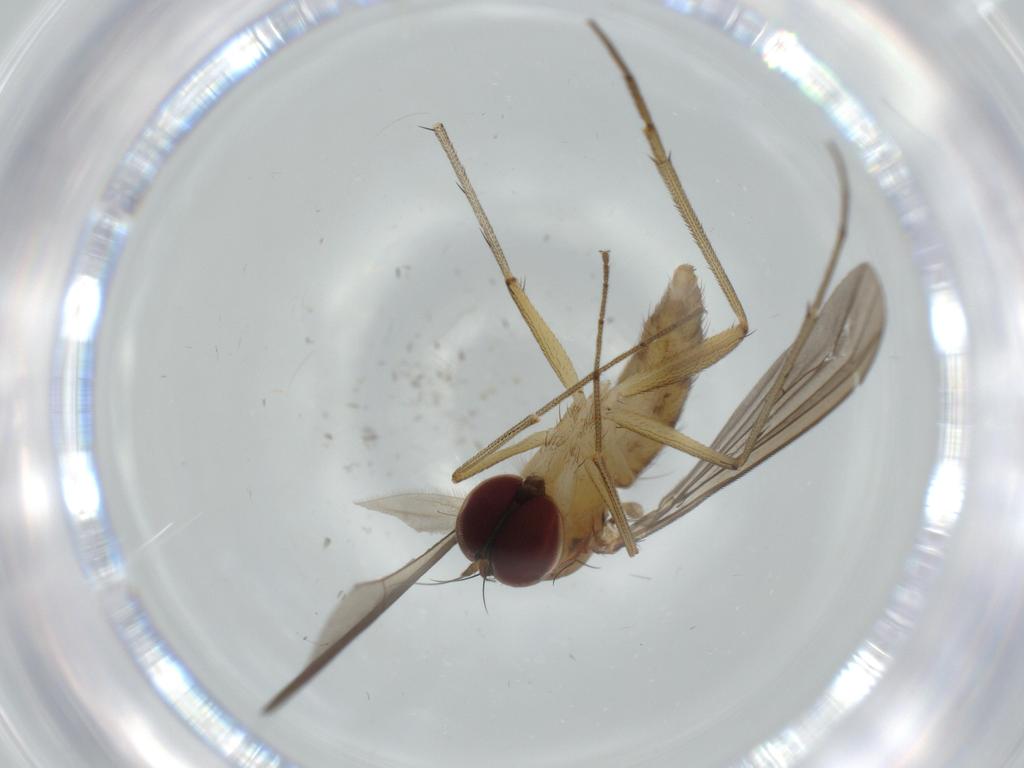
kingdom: Animalia
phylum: Arthropoda
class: Insecta
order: Diptera
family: Dolichopodidae
